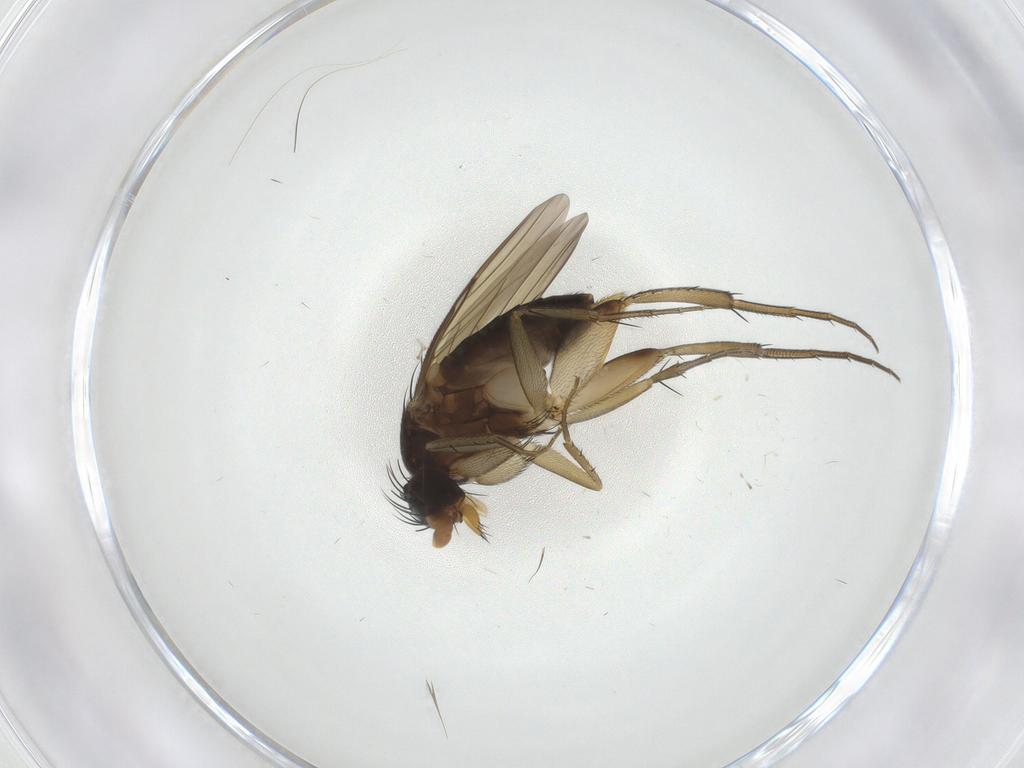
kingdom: Animalia
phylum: Arthropoda
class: Insecta
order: Diptera
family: Phoridae
